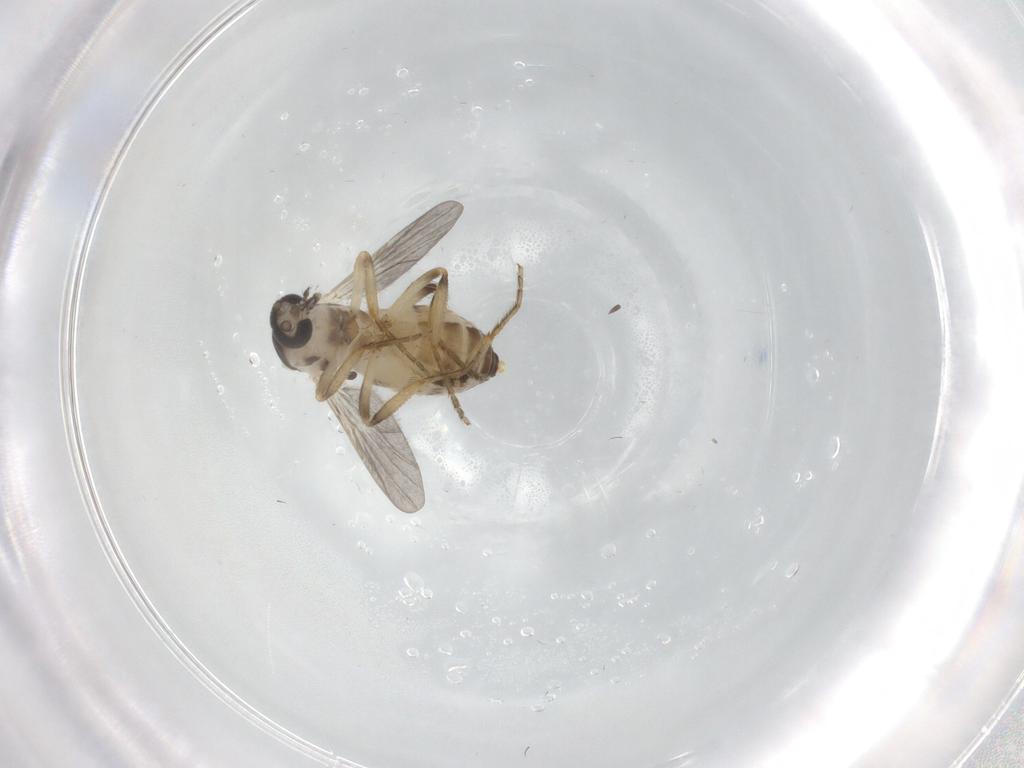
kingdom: Animalia
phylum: Arthropoda
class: Insecta
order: Diptera
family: Ceratopogonidae
